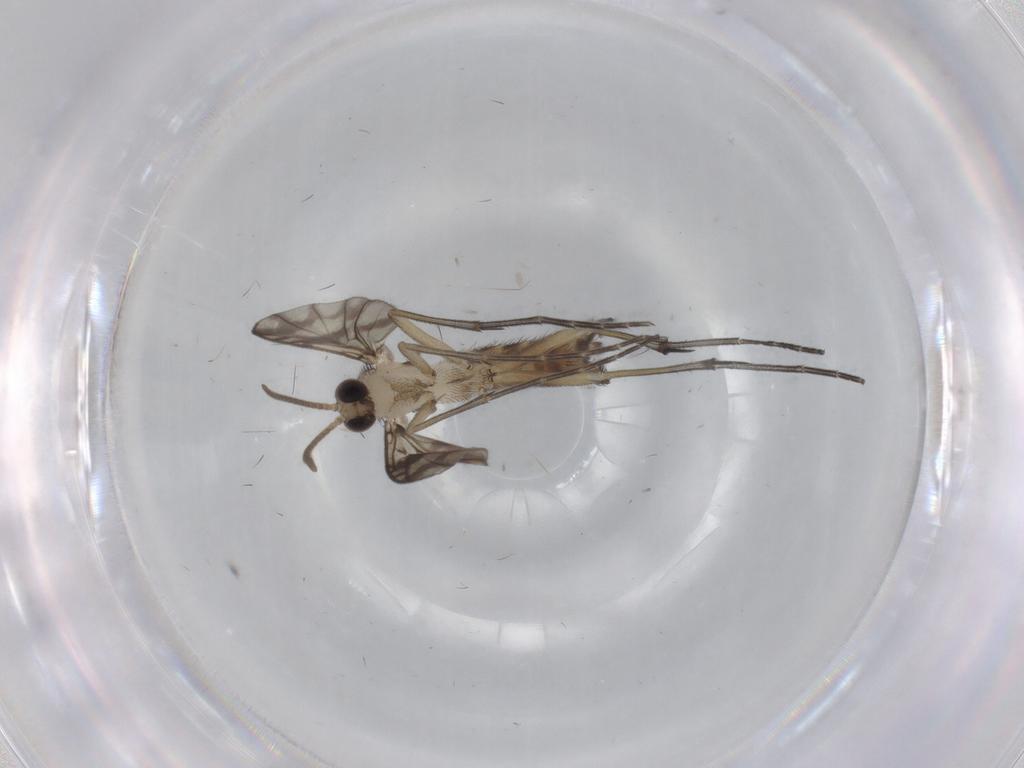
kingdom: Animalia
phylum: Arthropoda
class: Insecta
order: Diptera
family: Keroplatidae
